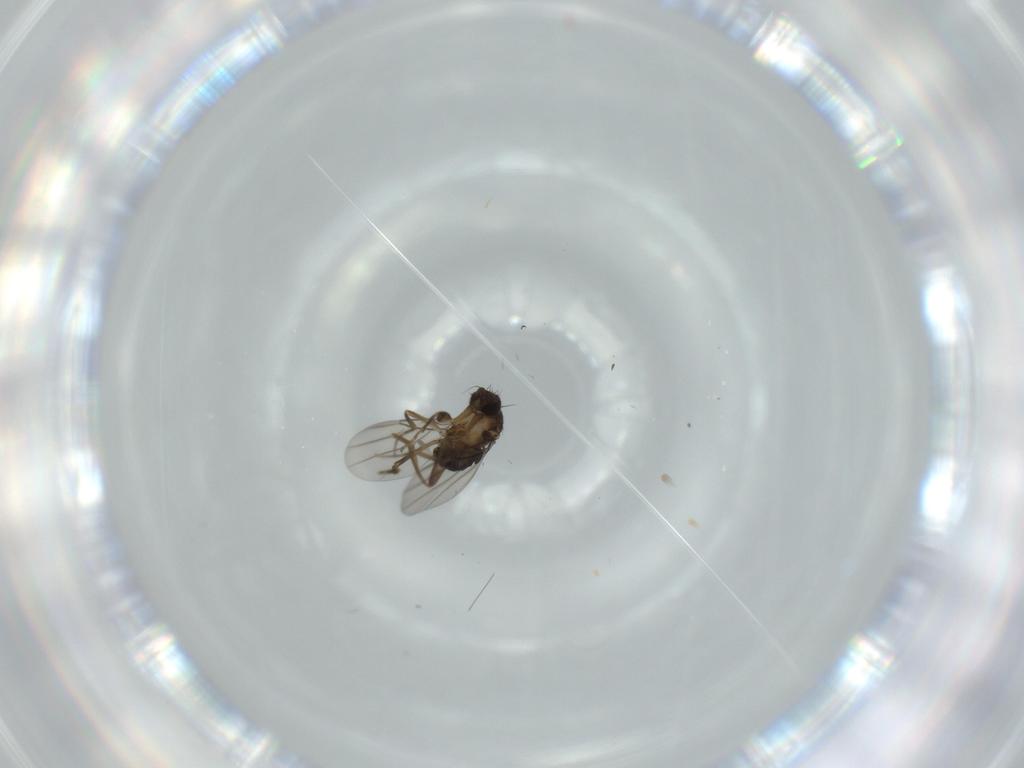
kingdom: Animalia
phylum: Arthropoda
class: Insecta
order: Diptera
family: Phoridae
